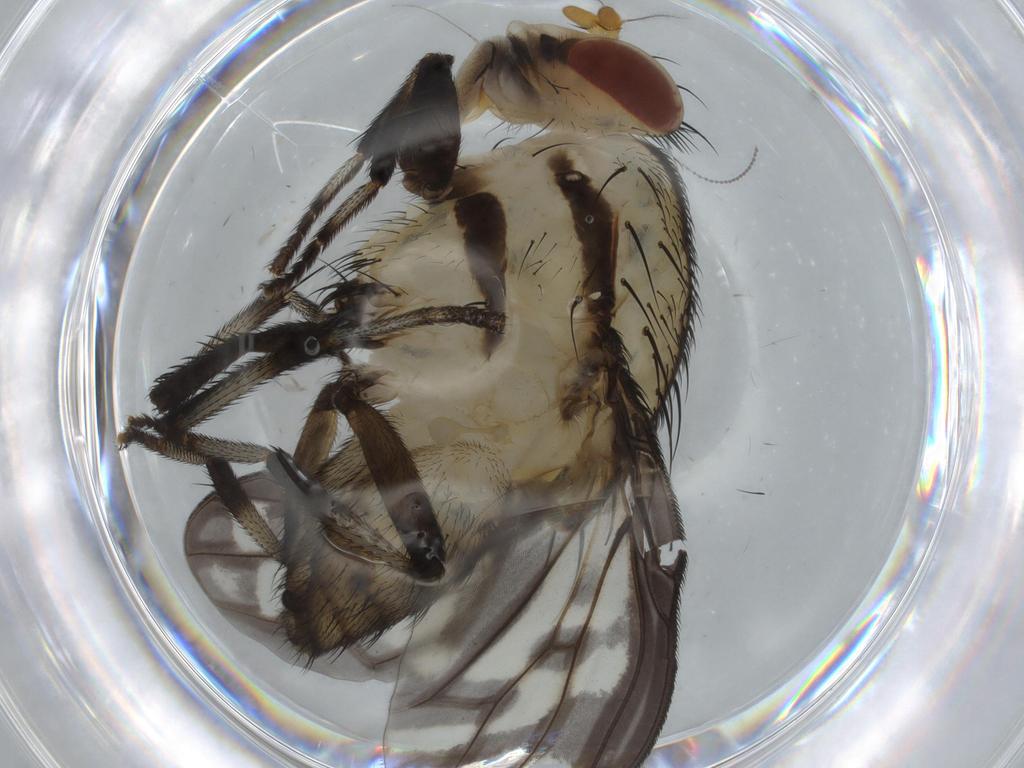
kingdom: Animalia
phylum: Arthropoda
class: Insecta
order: Diptera
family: Cecidomyiidae
